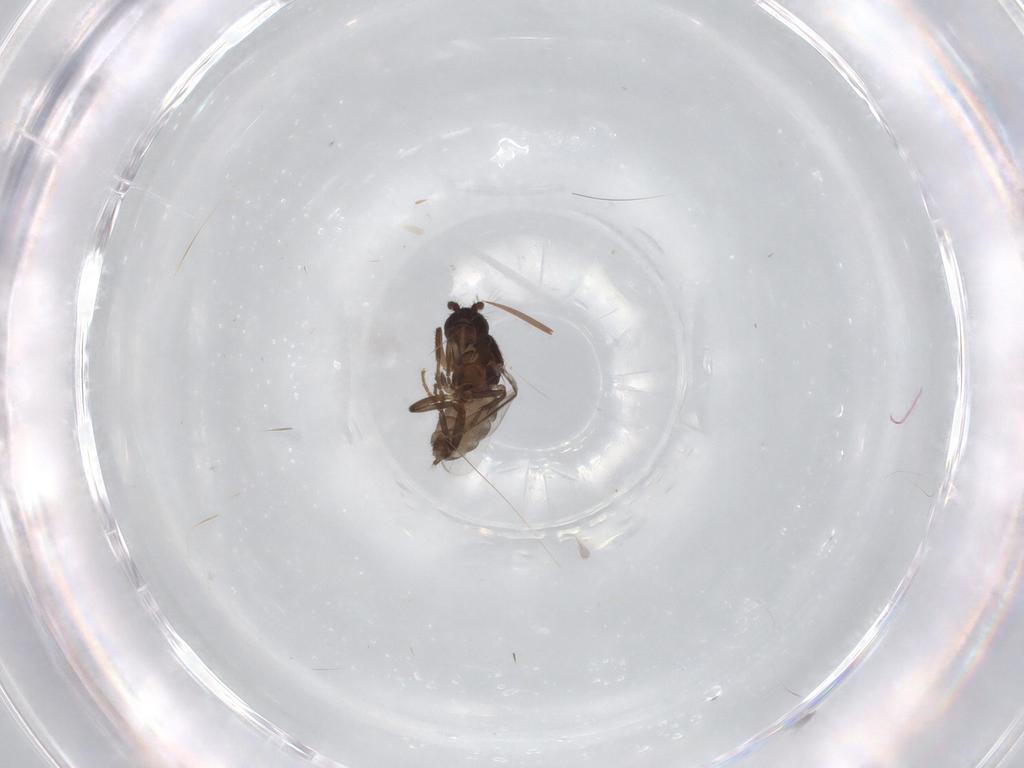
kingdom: Animalia
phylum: Arthropoda
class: Insecta
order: Diptera
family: Sphaeroceridae
